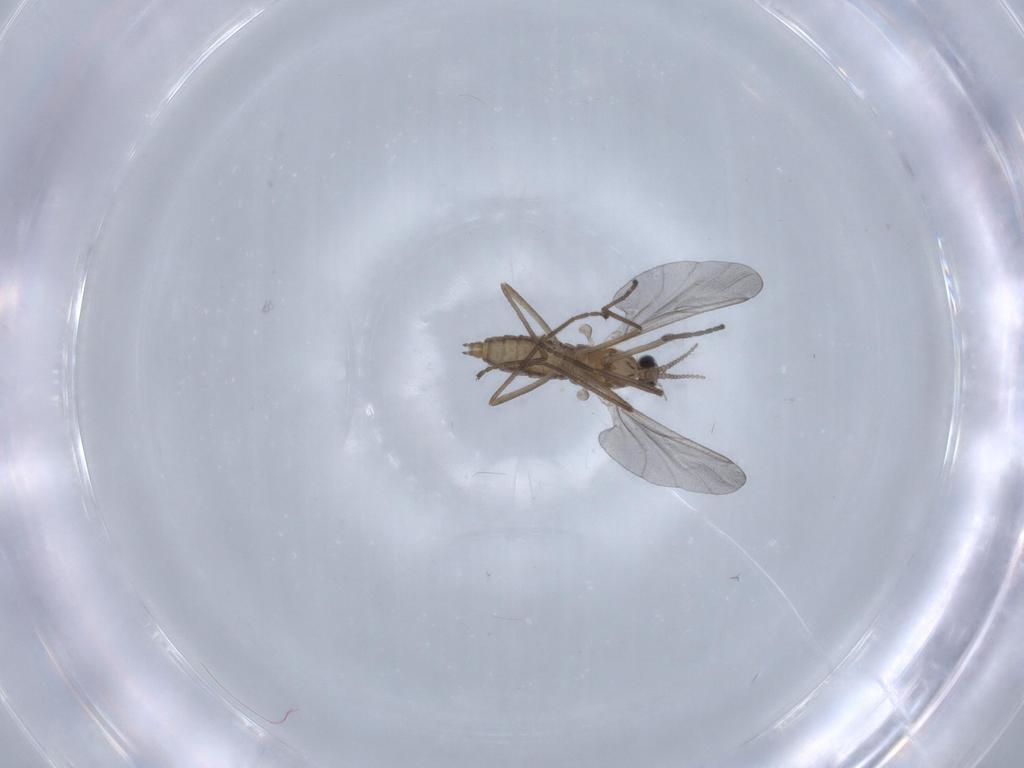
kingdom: Animalia
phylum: Arthropoda
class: Insecta
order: Diptera
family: Cecidomyiidae
